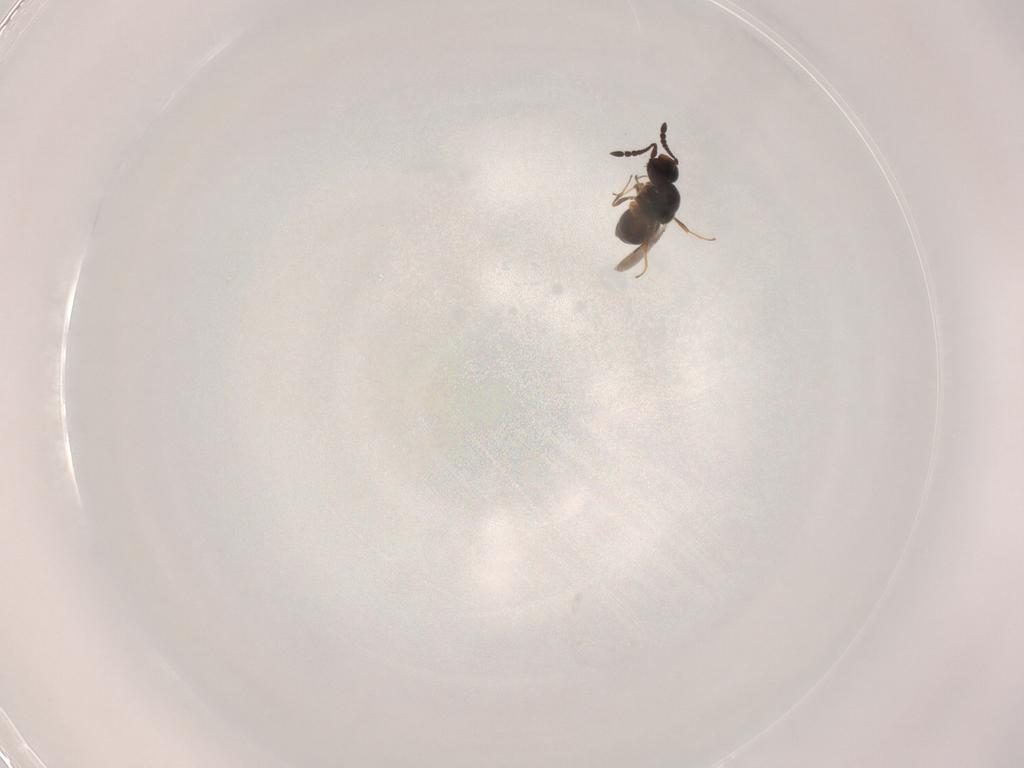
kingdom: Animalia
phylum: Arthropoda
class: Insecta
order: Hymenoptera
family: Ceraphronidae
